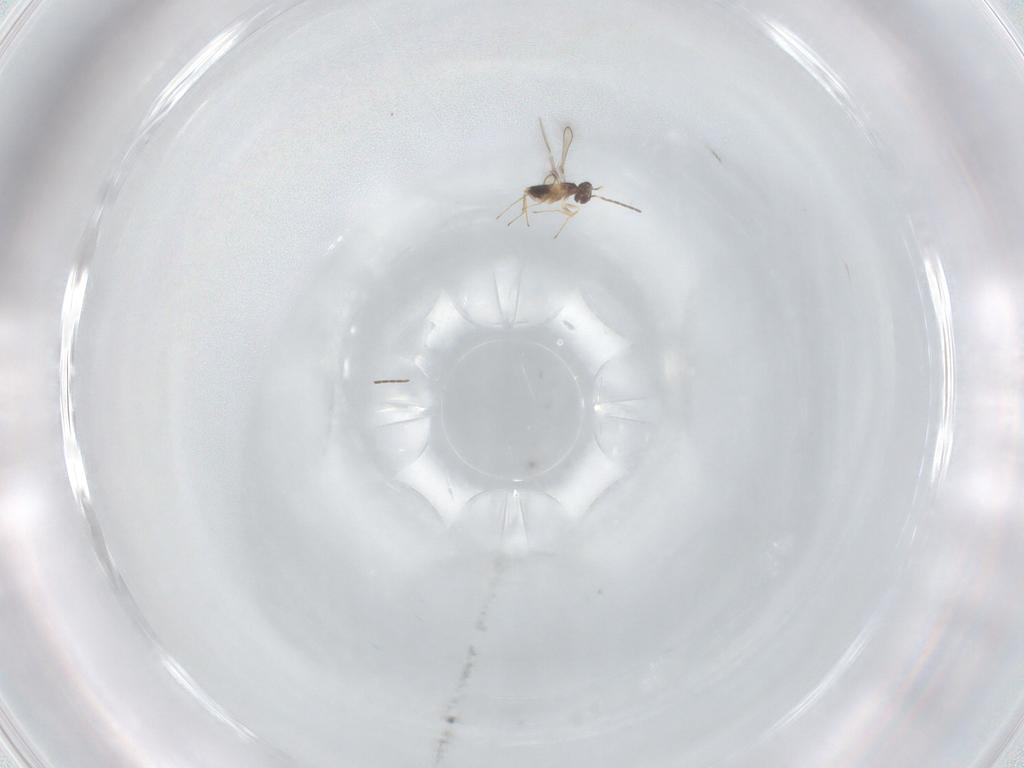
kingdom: Animalia
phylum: Arthropoda
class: Insecta
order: Hymenoptera
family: Mymaridae
